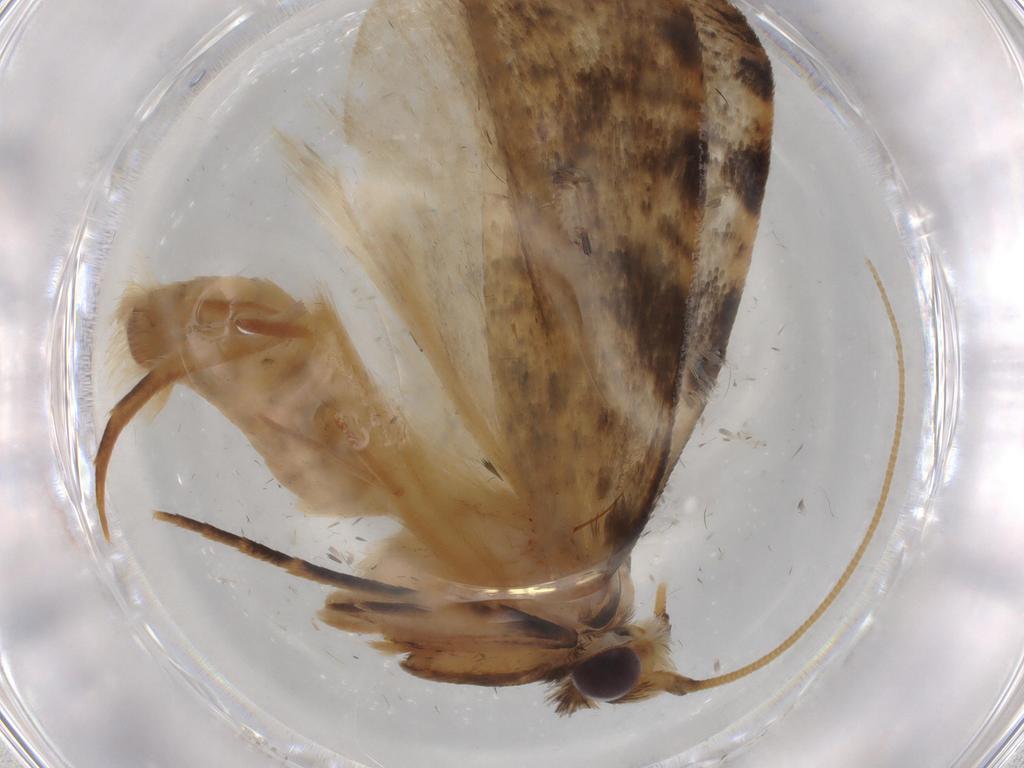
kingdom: Animalia
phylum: Arthropoda
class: Insecta
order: Lepidoptera
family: Tineidae
